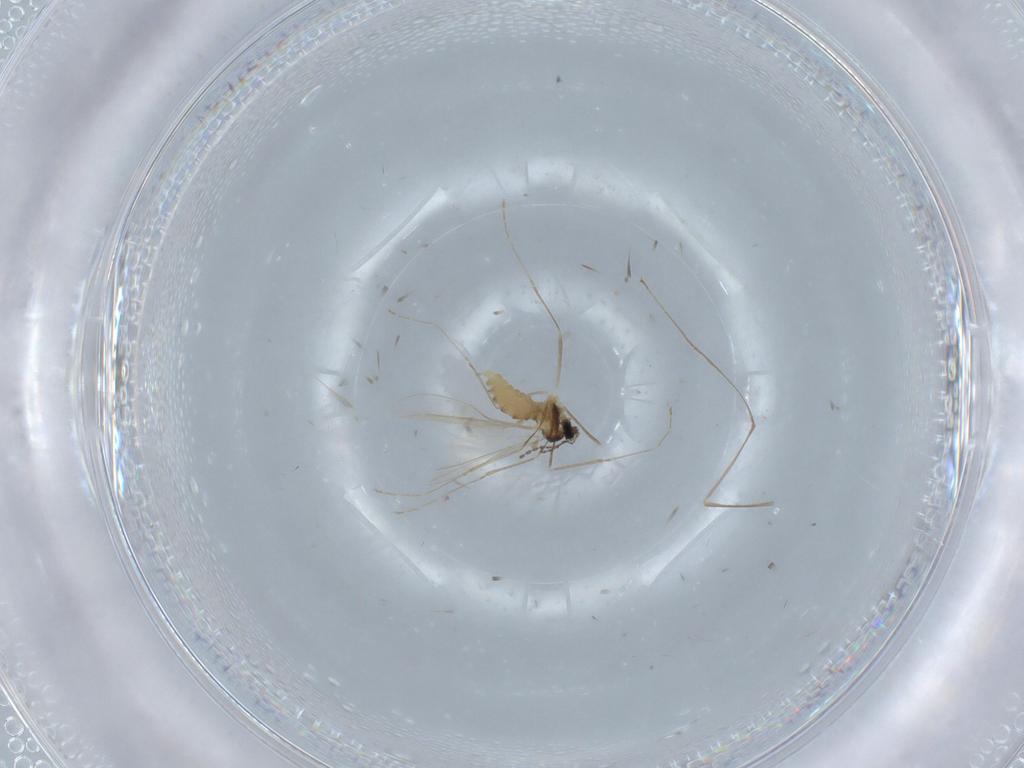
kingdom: Animalia
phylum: Arthropoda
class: Insecta
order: Diptera
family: Cecidomyiidae
